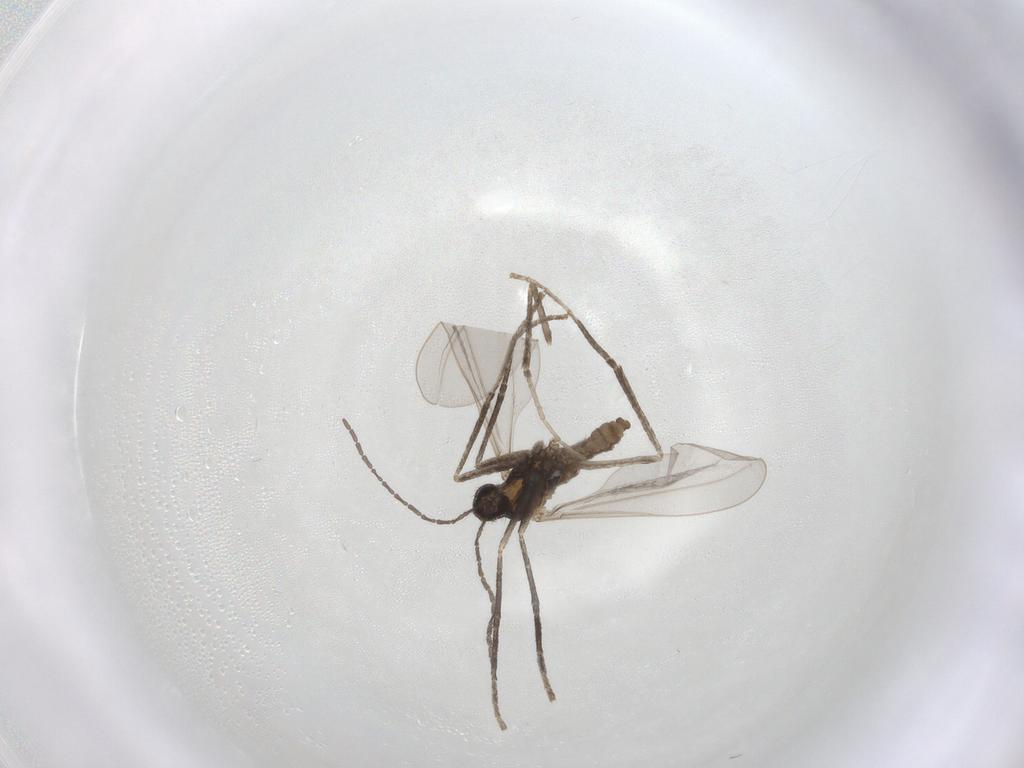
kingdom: Animalia
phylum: Arthropoda
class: Insecta
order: Diptera
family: Cecidomyiidae
